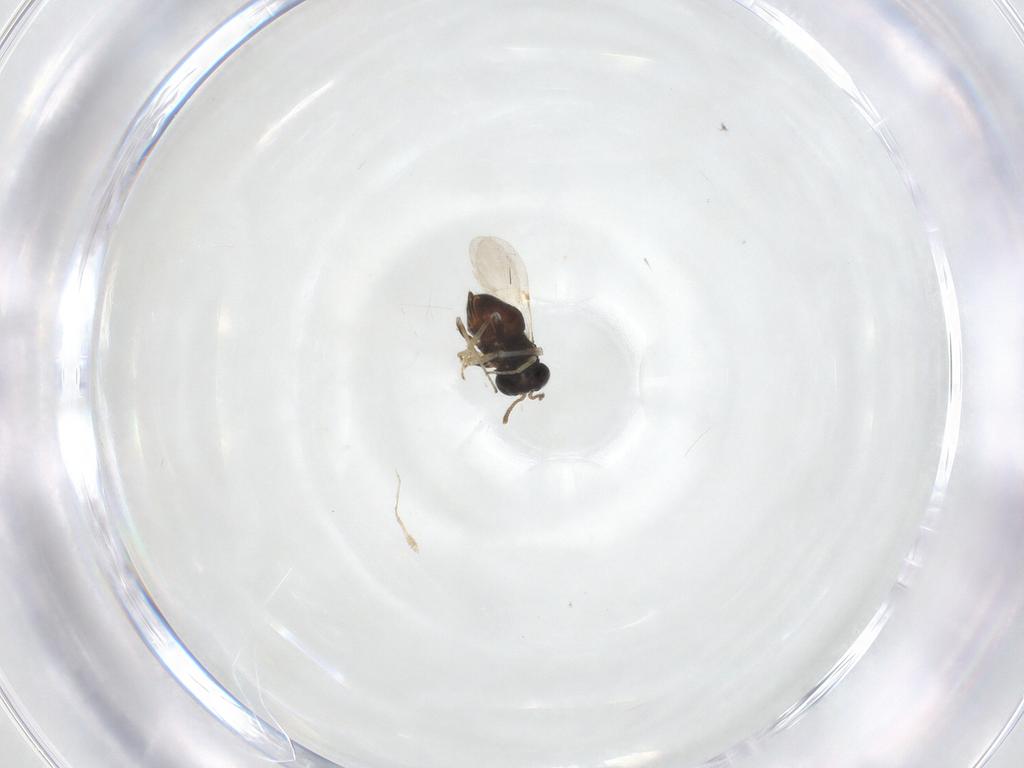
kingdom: Animalia
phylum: Arthropoda
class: Insecta
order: Hymenoptera
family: Encyrtidae
